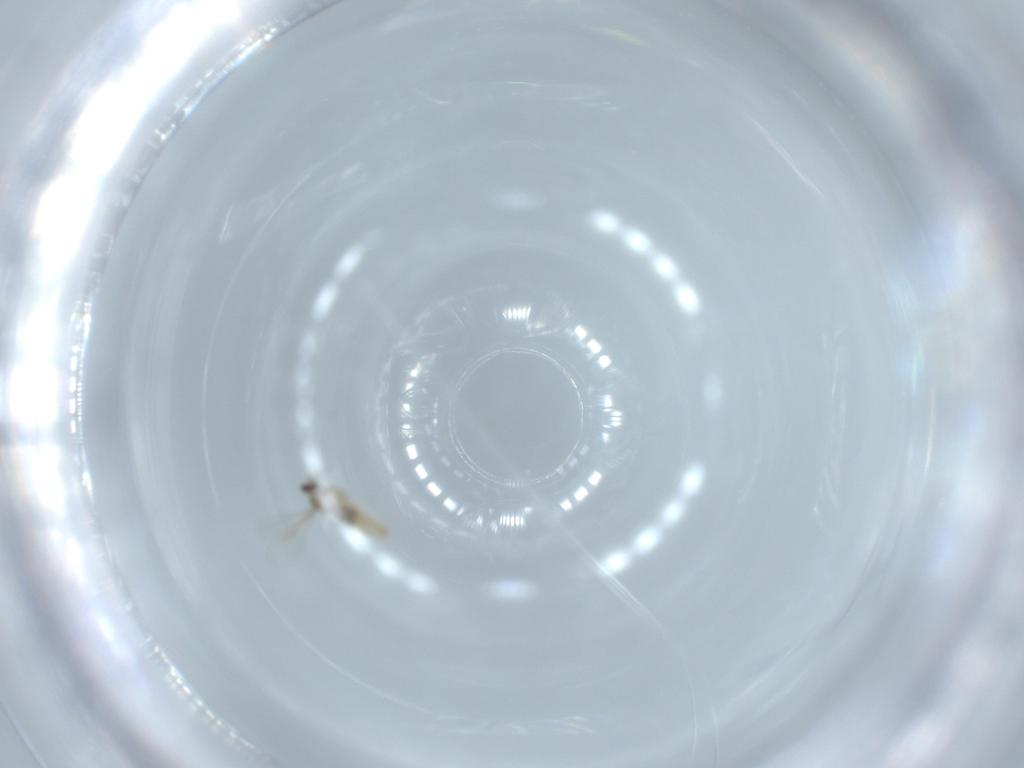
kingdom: Animalia
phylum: Arthropoda
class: Insecta
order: Diptera
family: Cecidomyiidae
